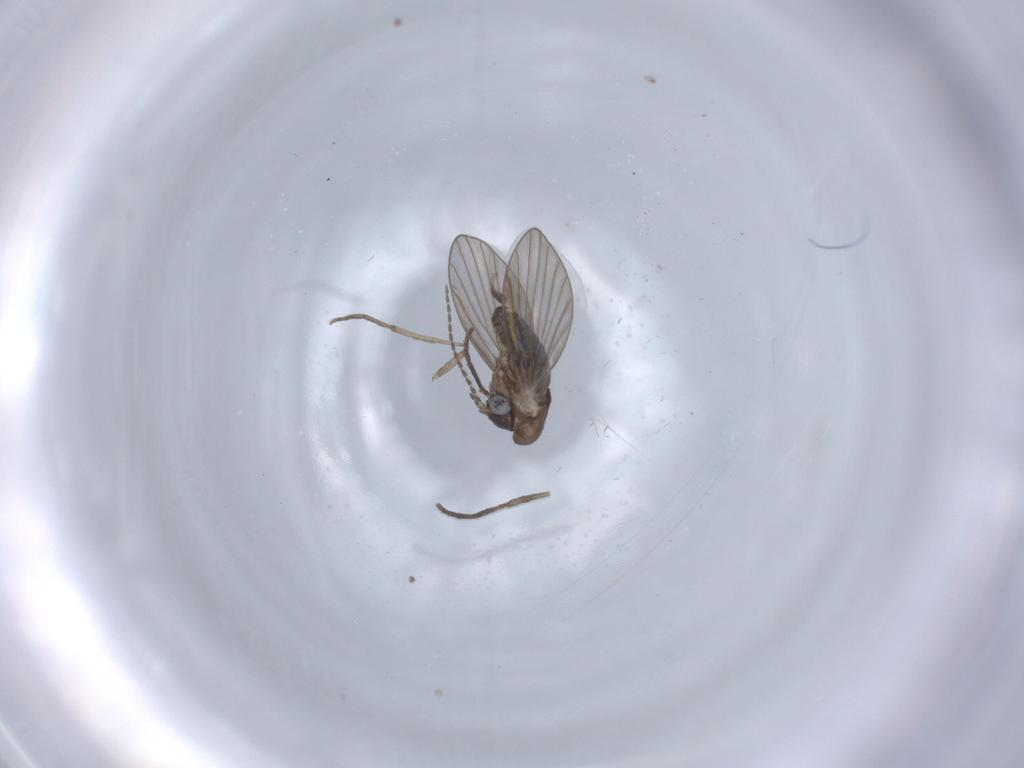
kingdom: Animalia
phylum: Arthropoda
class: Insecta
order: Diptera
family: Psychodidae
